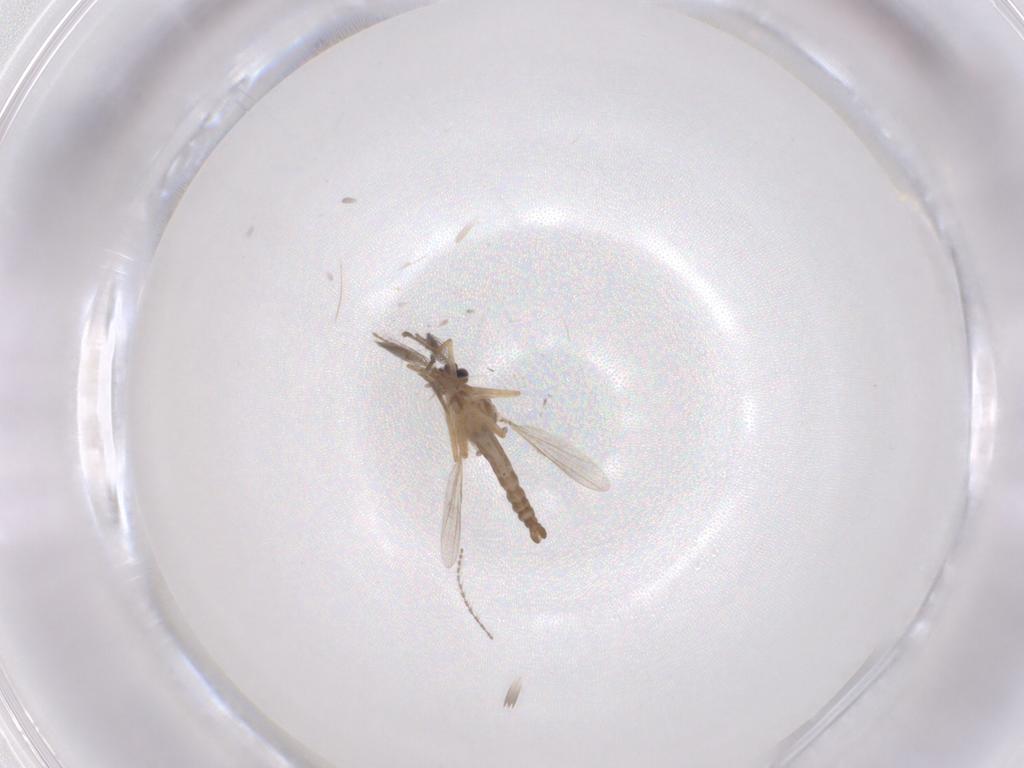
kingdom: Animalia
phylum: Arthropoda
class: Insecta
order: Diptera
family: Ceratopogonidae
